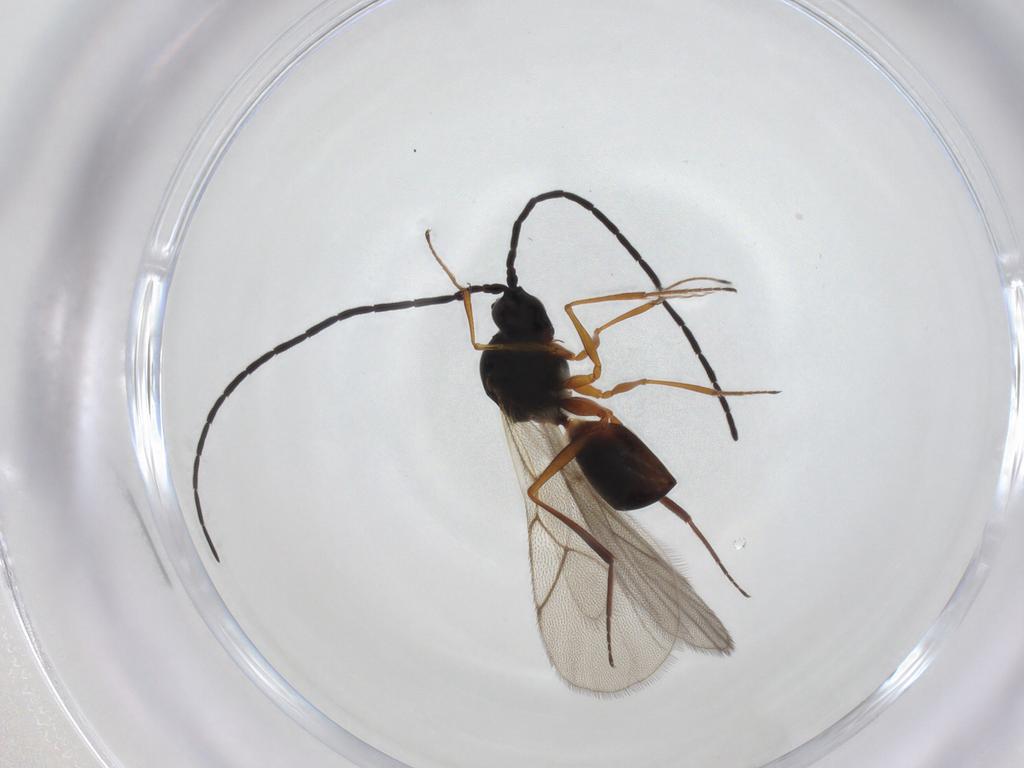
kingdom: Animalia
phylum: Arthropoda
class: Insecta
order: Hymenoptera
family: Figitidae
